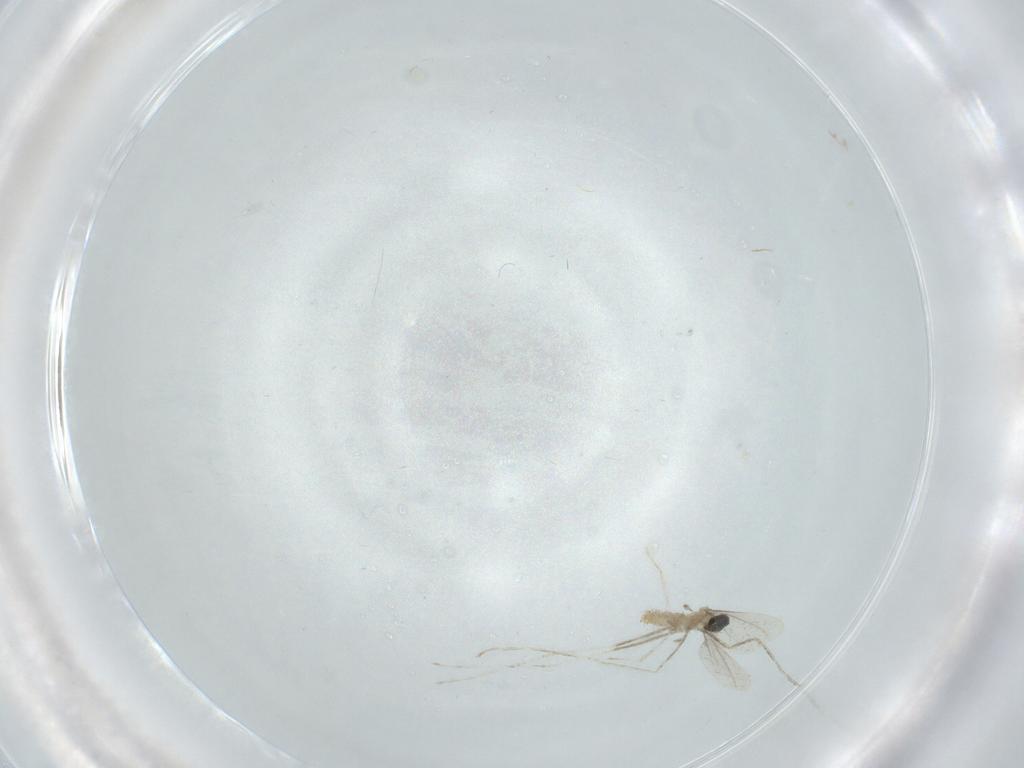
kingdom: Animalia
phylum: Arthropoda
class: Insecta
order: Diptera
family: Cecidomyiidae
